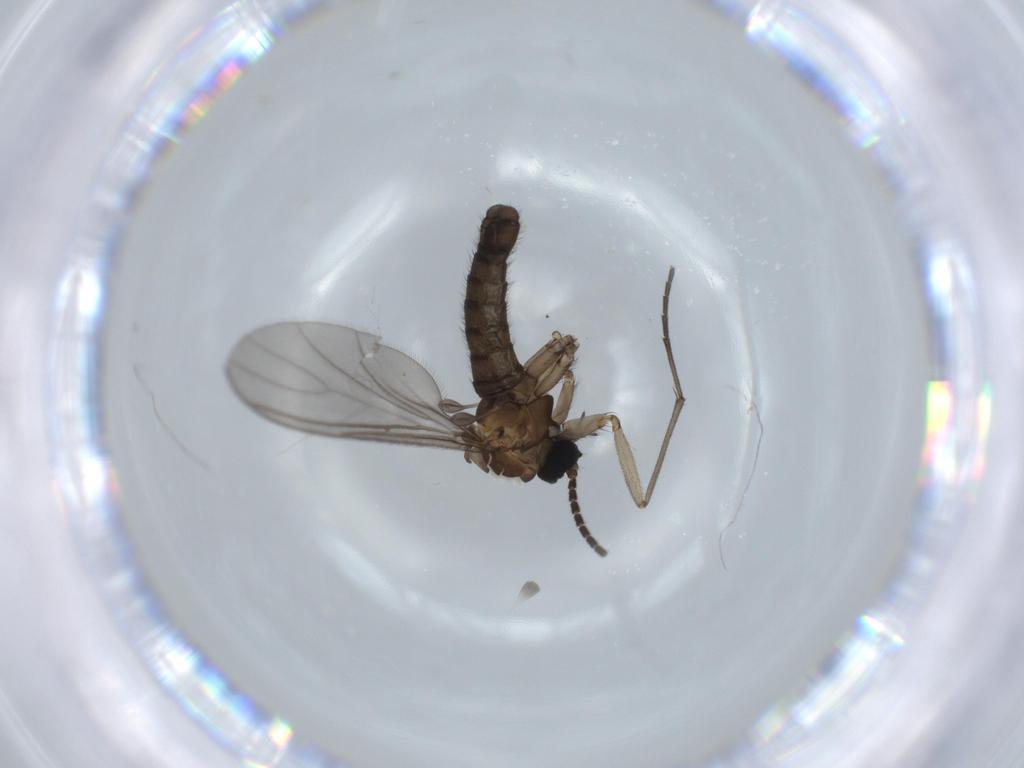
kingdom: Animalia
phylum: Arthropoda
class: Insecta
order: Diptera
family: Sciaridae
